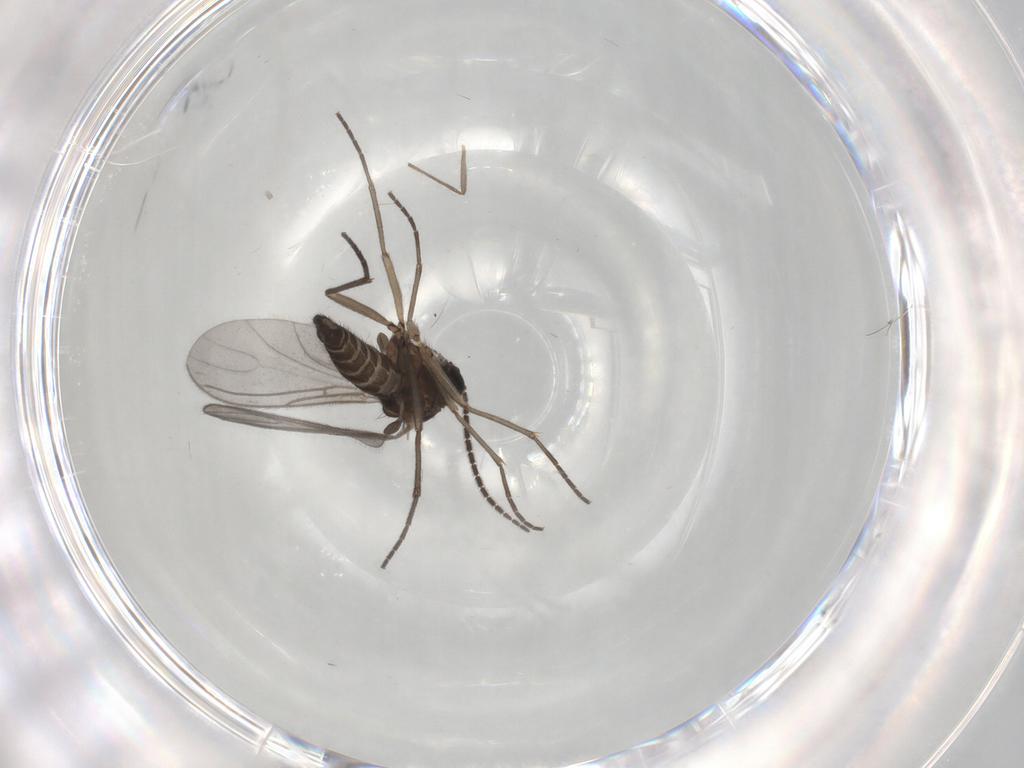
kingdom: Animalia
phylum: Arthropoda
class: Insecta
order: Diptera
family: Sciaridae
